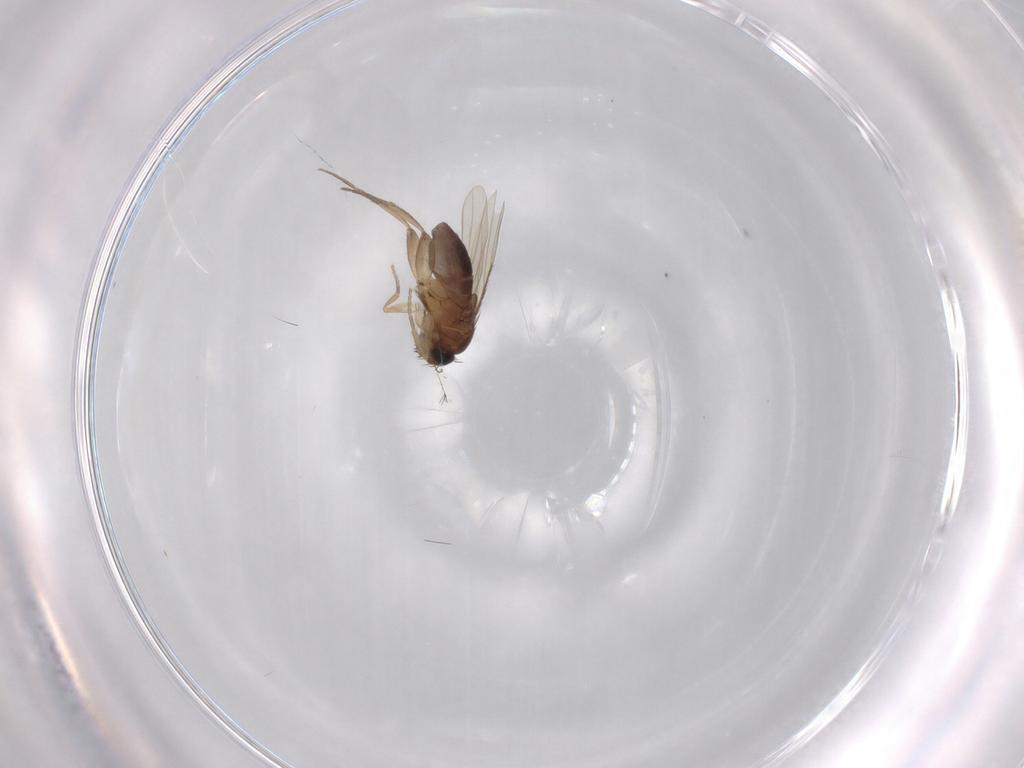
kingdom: Animalia
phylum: Arthropoda
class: Insecta
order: Diptera
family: Phoridae
